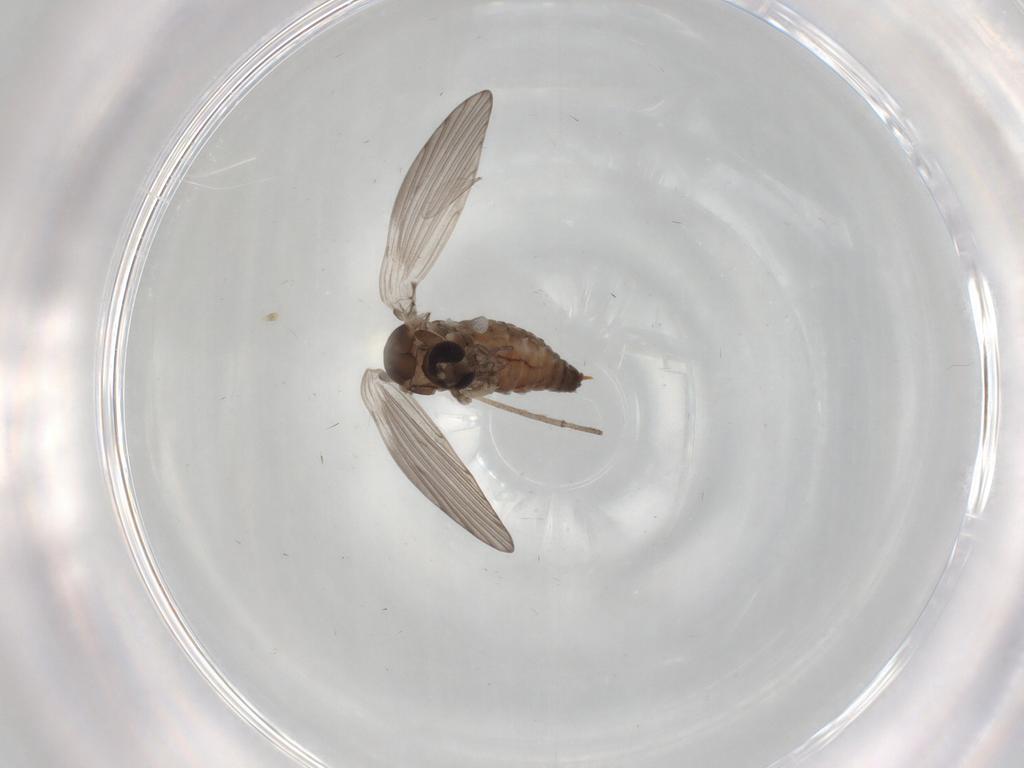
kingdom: Animalia
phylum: Arthropoda
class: Insecta
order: Diptera
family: Psychodidae
